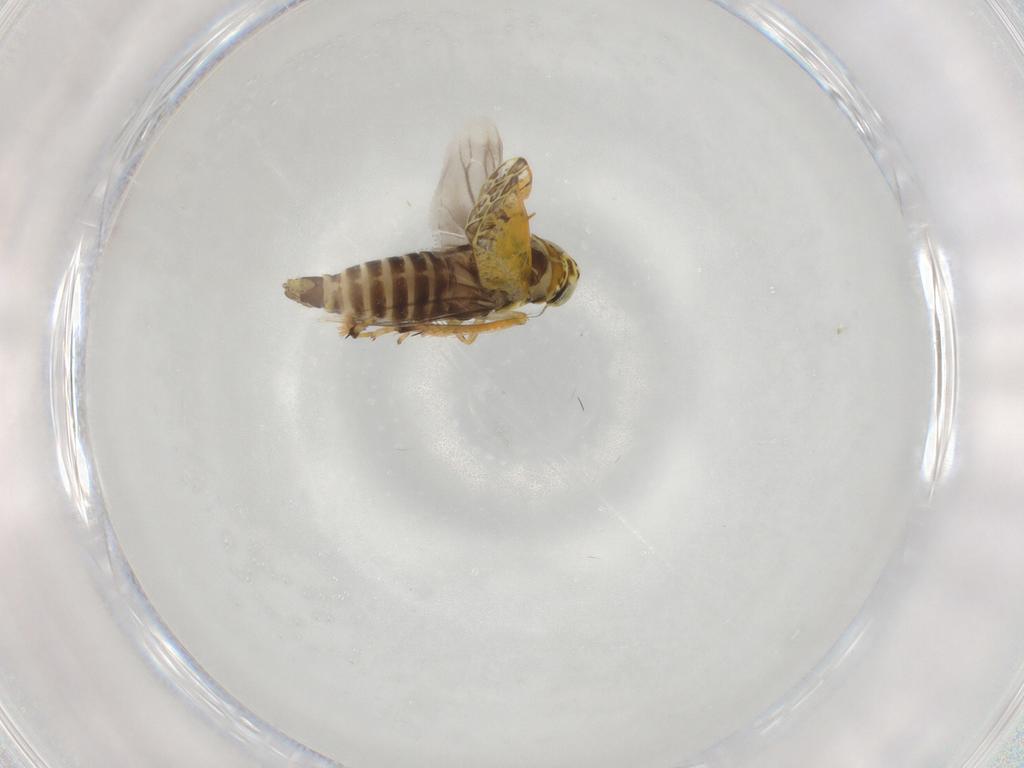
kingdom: Animalia
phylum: Arthropoda
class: Insecta
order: Hemiptera
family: Cicadellidae
